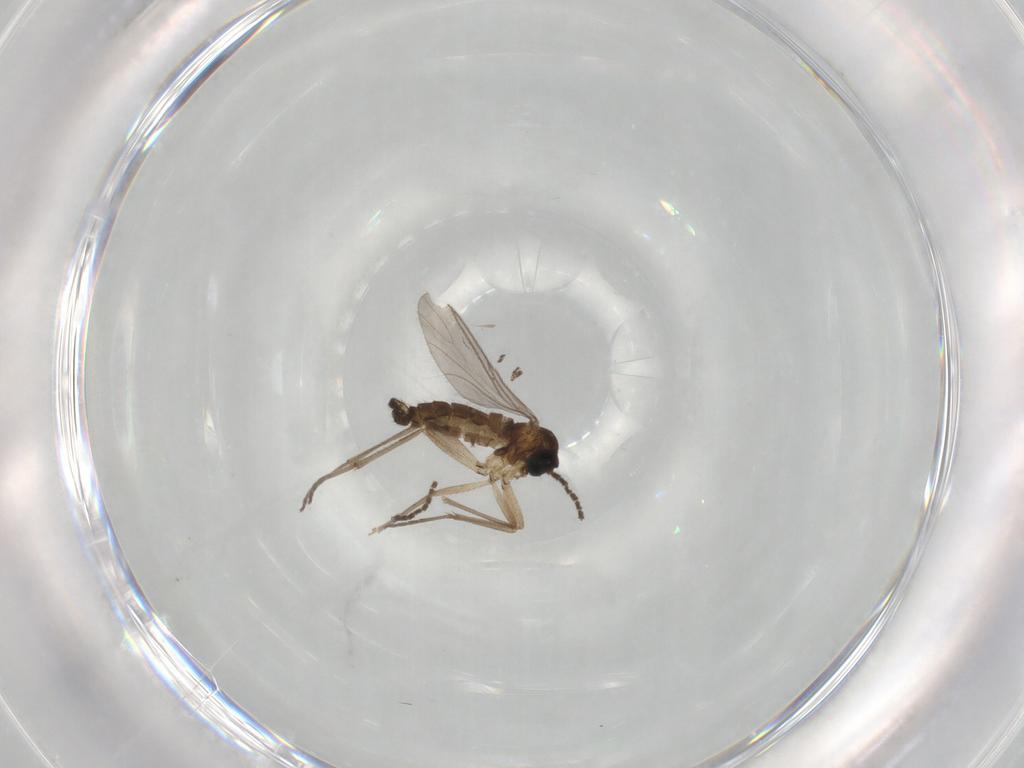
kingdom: Animalia
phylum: Arthropoda
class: Insecta
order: Diptera
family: Sciaridae
